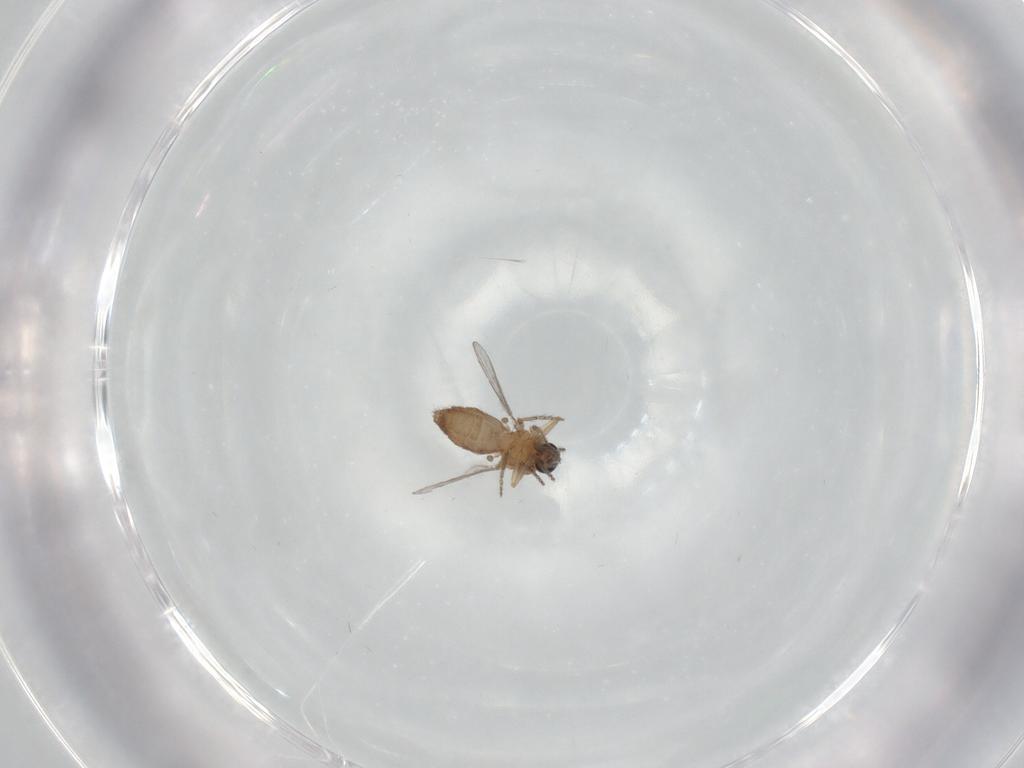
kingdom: Animalia
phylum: Arthropoda
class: Insecta
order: Diptera
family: Ceratopogonidae
